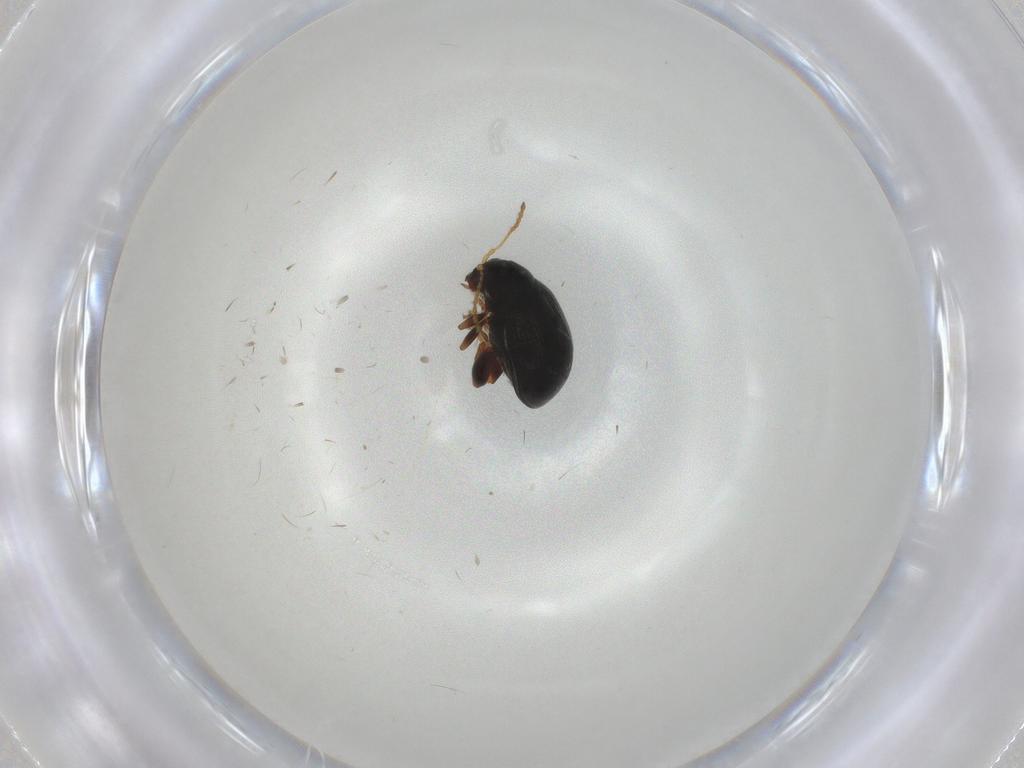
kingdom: Animalia
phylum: Arthropoda
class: Insecta
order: Coleoptera
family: Chrysomelidae
